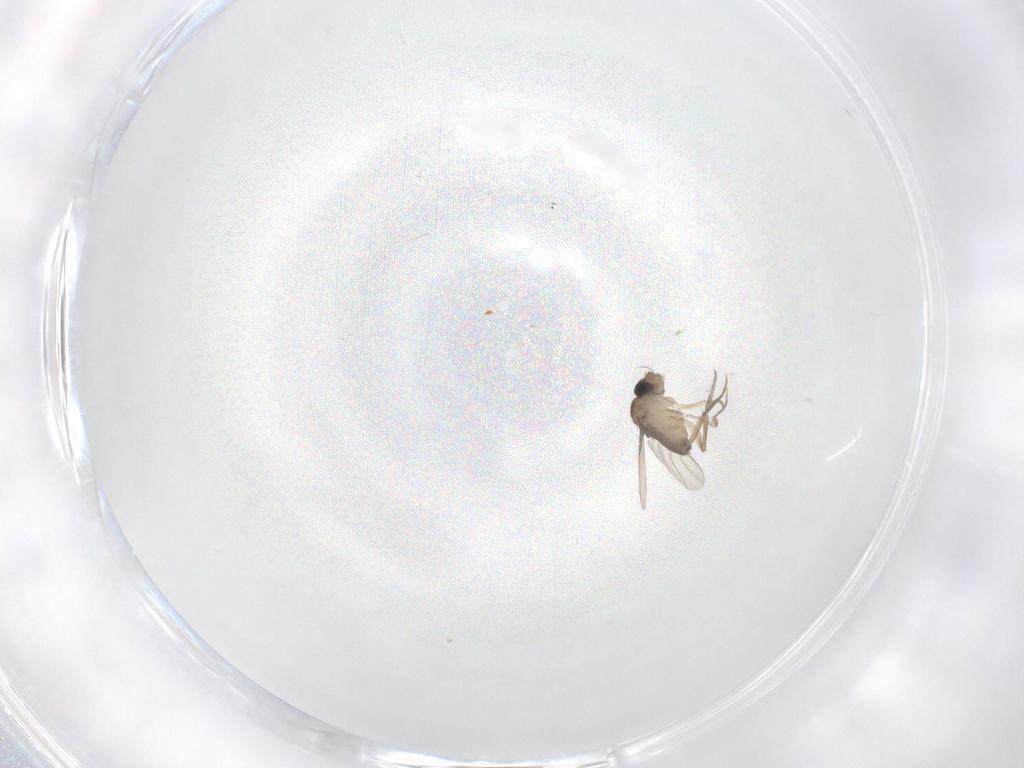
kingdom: Animalia
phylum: Arthropoda
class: Insecta
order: Diptera
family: Phoridae
